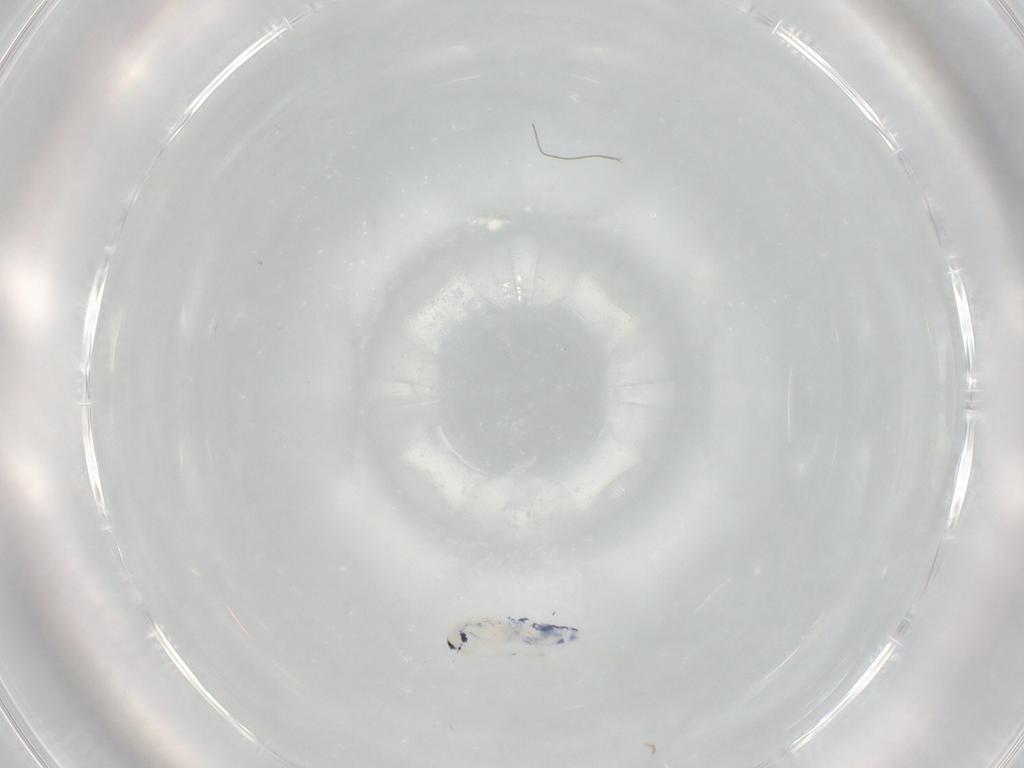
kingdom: Animalia
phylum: Arthropoda
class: Collembola
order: Entomobryomorpha
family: Entomobryidae
